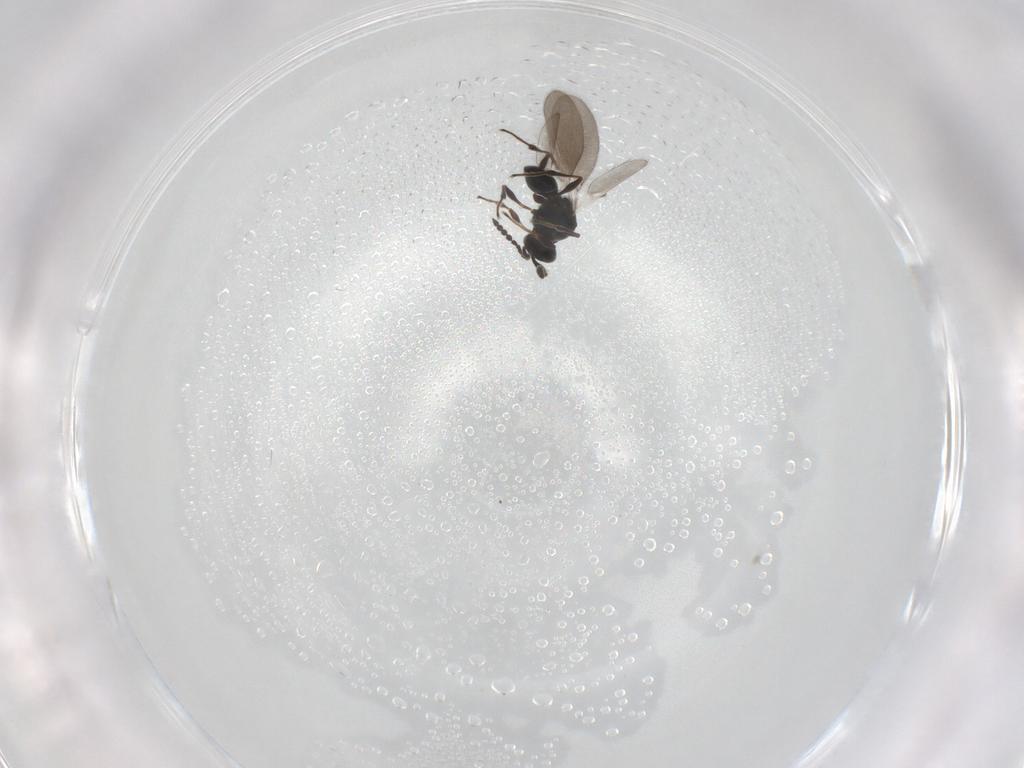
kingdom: Animalia
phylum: Arthropoda
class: Insecta
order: Hymenoptera
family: Platygastridae
